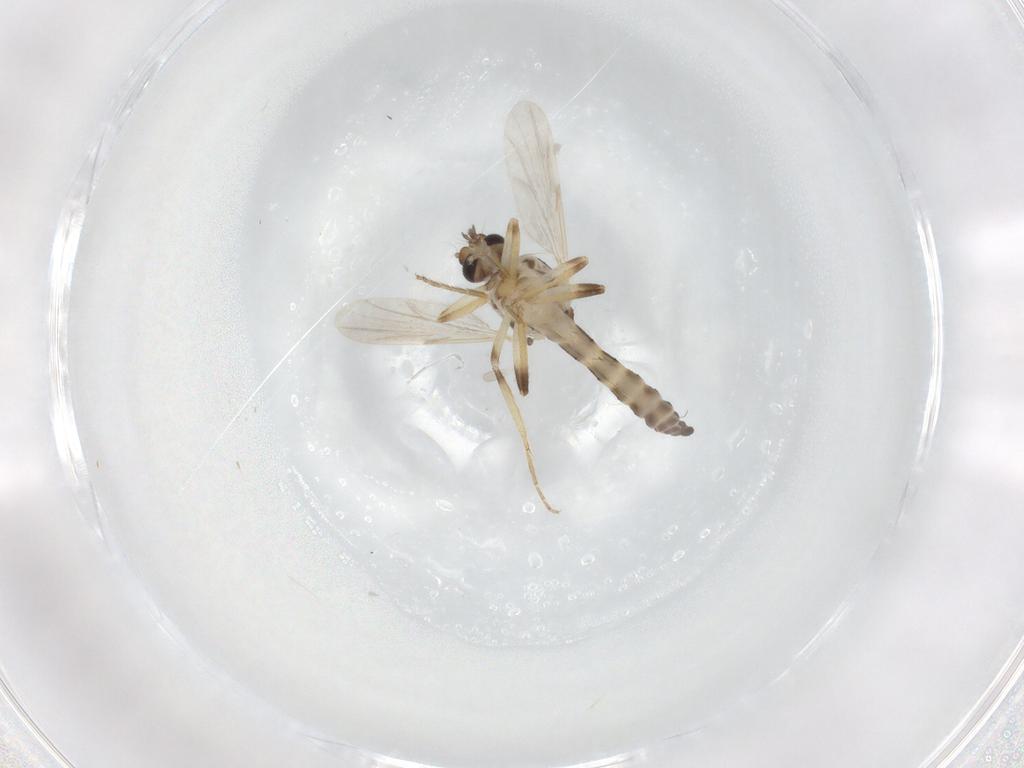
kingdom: Animalia
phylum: Arthropoda
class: Insecta
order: Diptera
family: Ceratopogonidae
